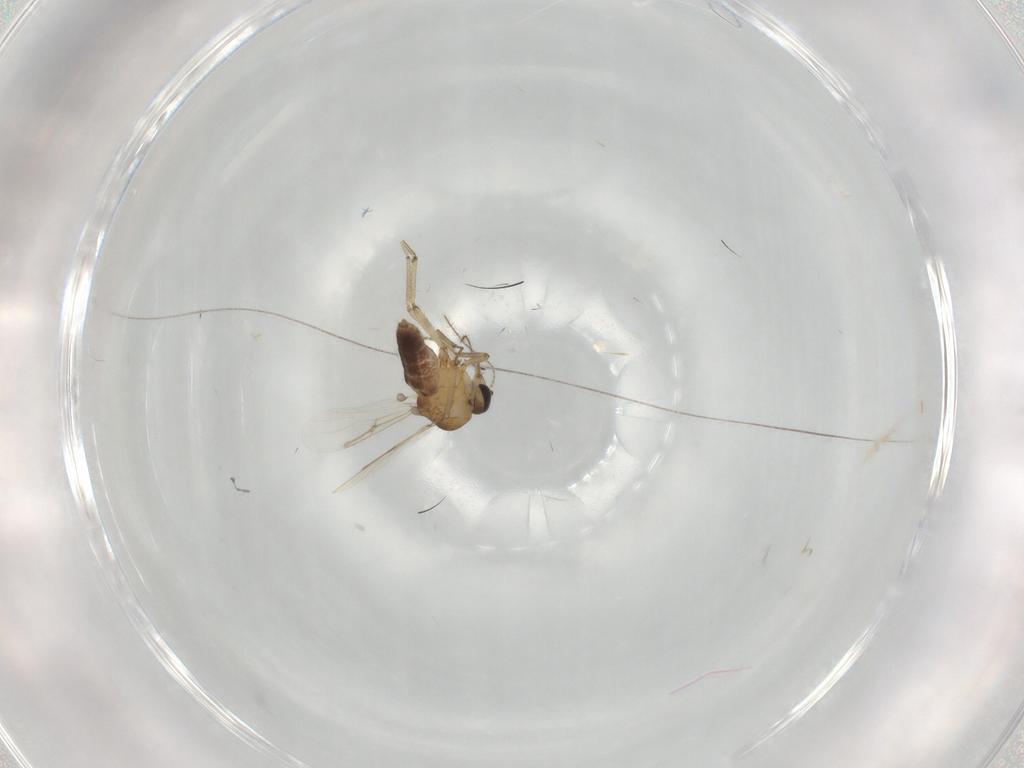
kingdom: Animalia
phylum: Arthropoda
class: Insecta
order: Diptera
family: Ceratopogonidae
